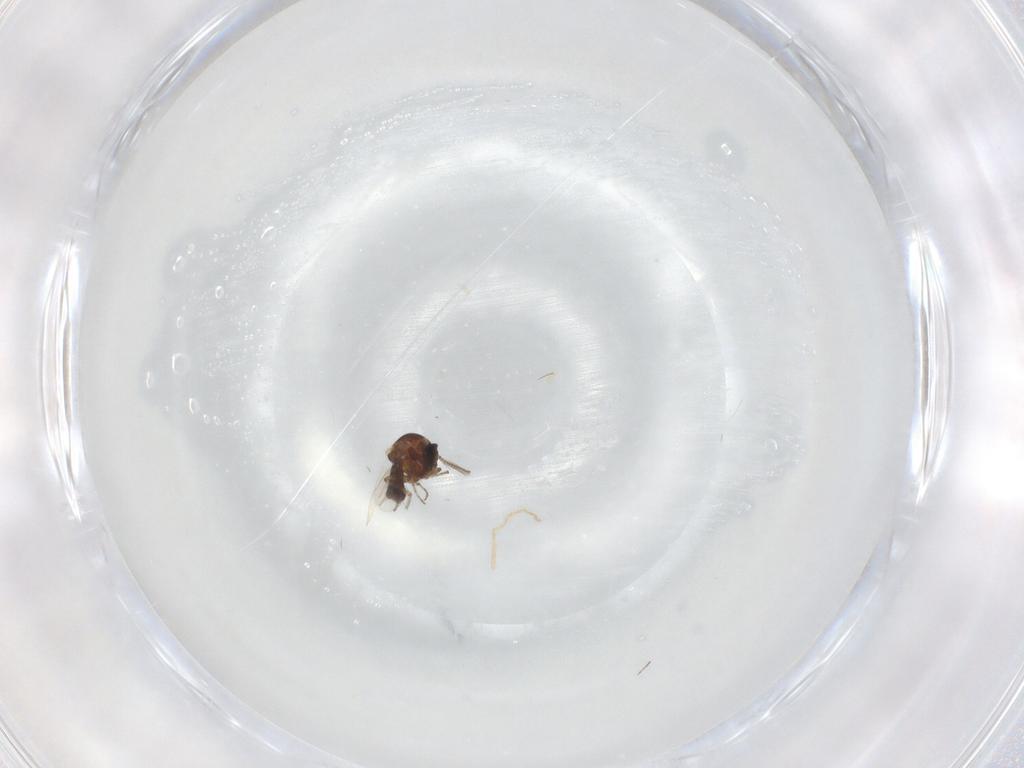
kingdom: Animalia
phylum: Arthropoda
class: Insecta
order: Diptera
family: Ceratopogonidae
